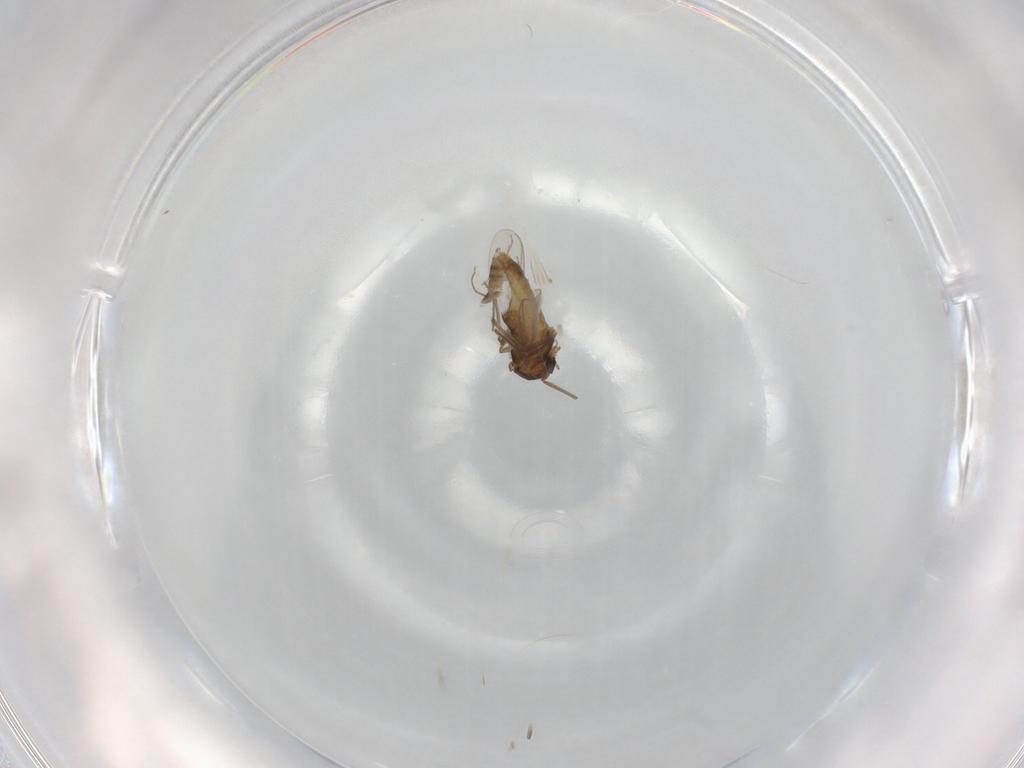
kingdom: Animalia
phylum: Arthropoda
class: Insecta
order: Diptera
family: Chironomidae
